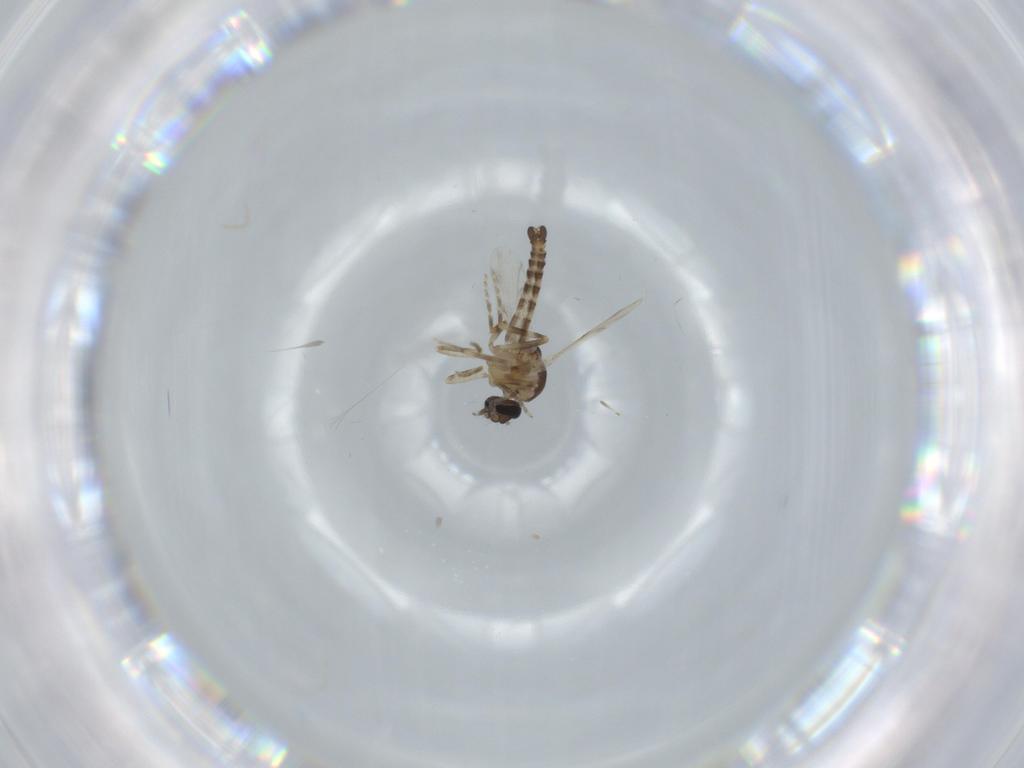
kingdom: Animalia
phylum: Arthropoda
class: Insecta
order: Diptera
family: Ceratopogonidae
